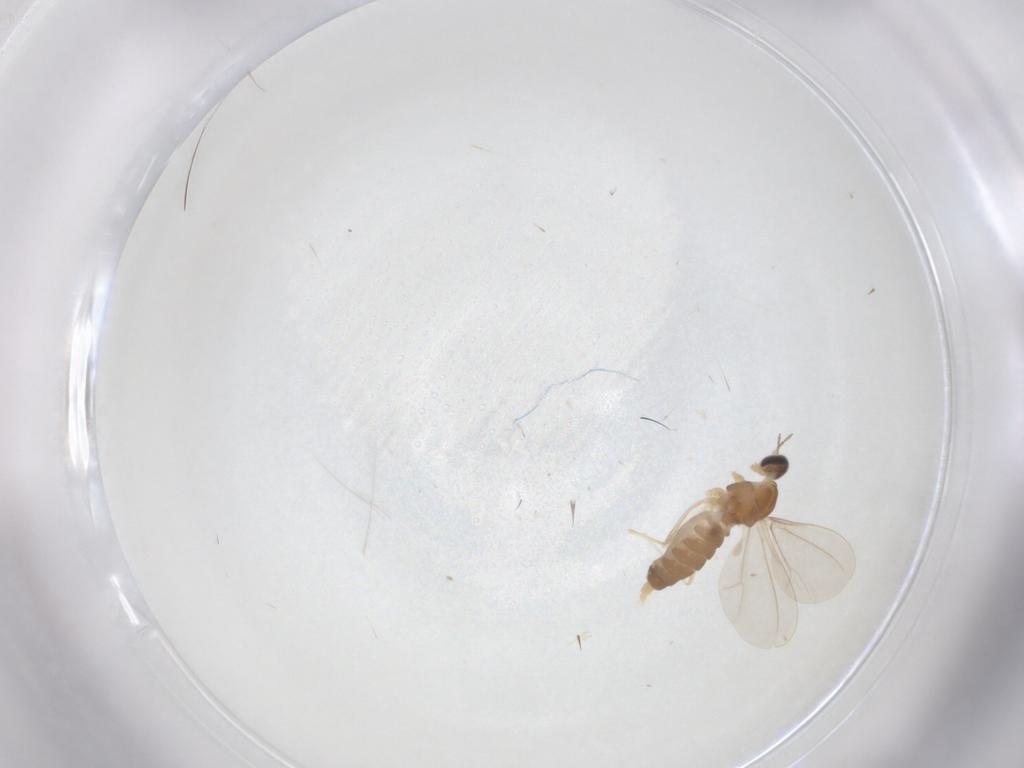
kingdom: Animalia
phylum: Arthropoda
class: Insecta
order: Diptera
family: Cecidomyiidae
